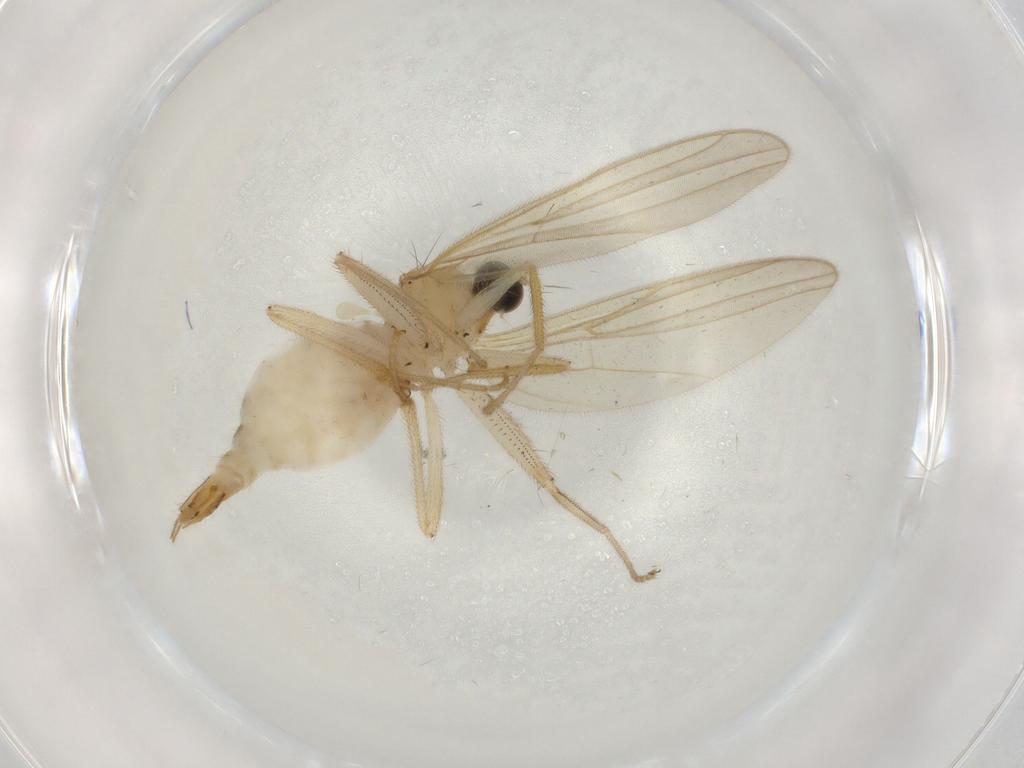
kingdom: Animalia
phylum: Arthropoda
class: Insecta
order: Diptera
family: Hybotidae
